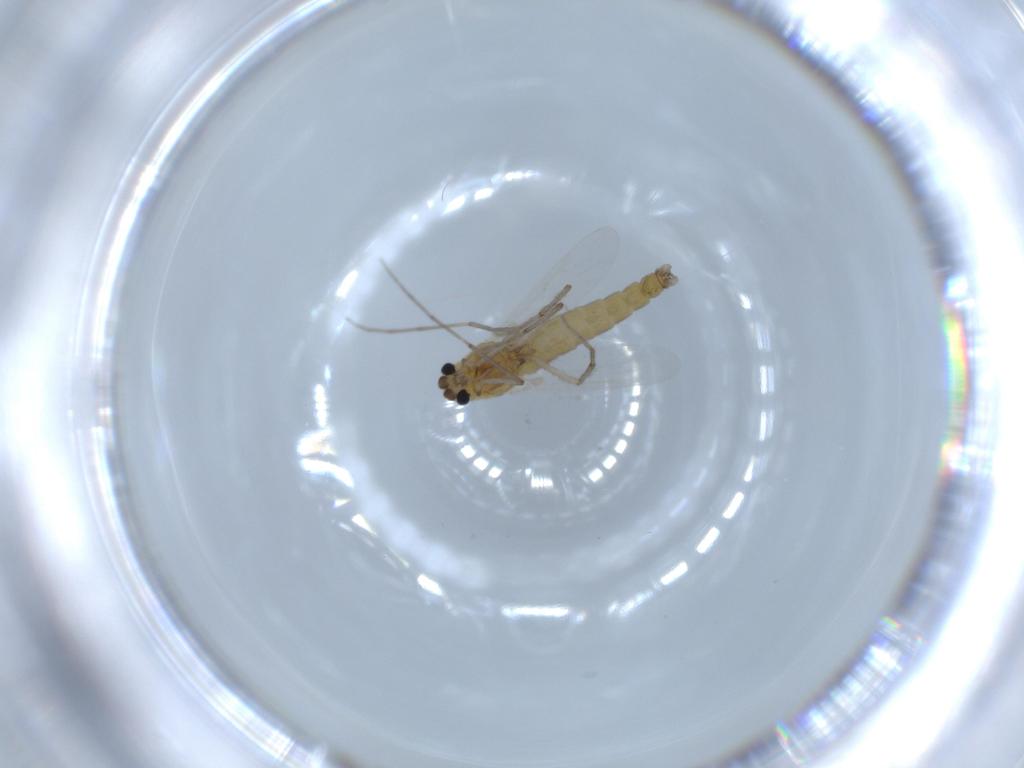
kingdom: Animalia
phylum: Arthropoda
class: Insecta
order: Diptera
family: Chironomidae
